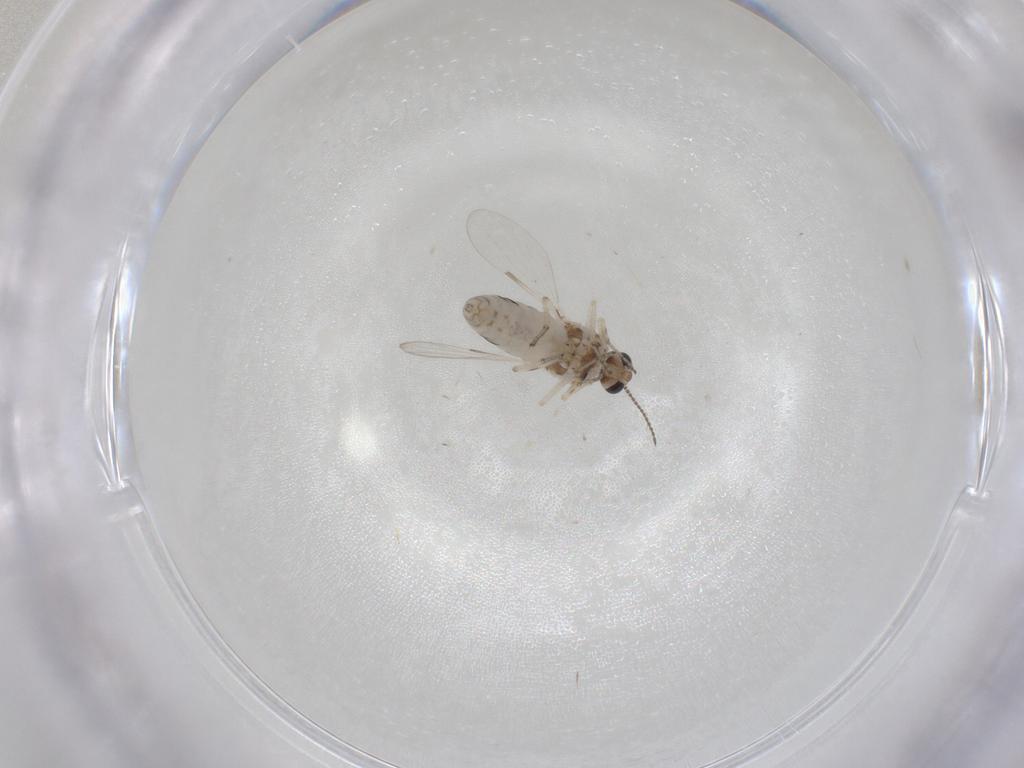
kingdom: Animalia
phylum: Arthropoda
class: Insecta
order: Diptera
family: Ceratopogonidae
